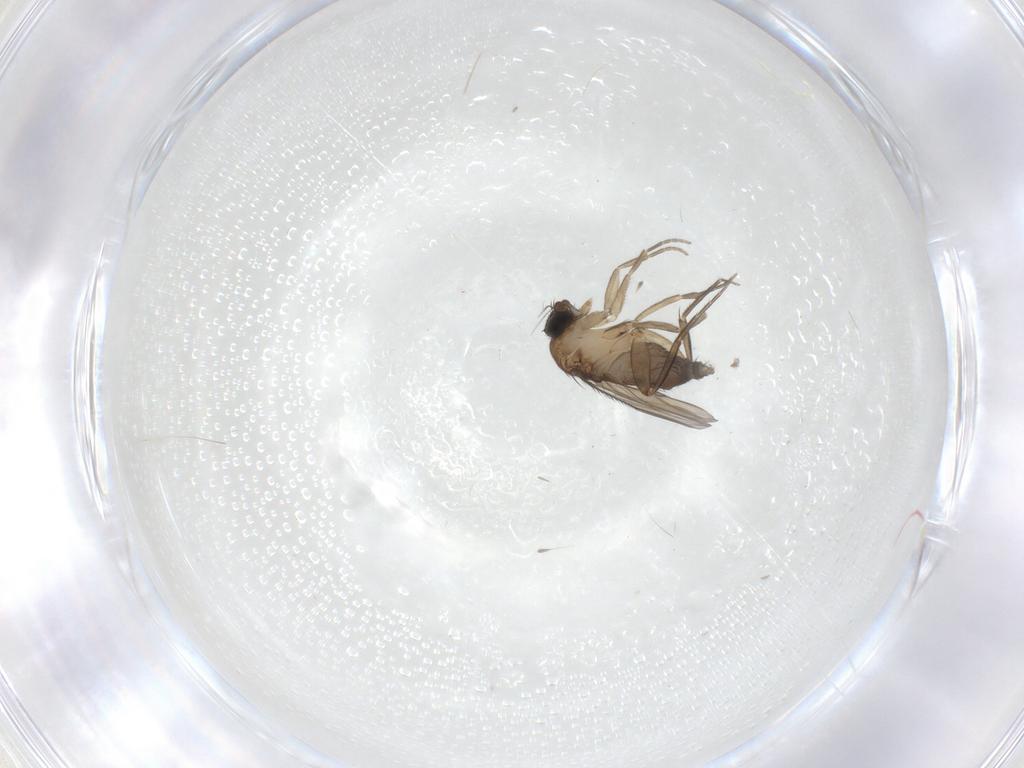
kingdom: Animalia
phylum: Arthropoda
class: Insecta
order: Diptera
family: Phoridae
